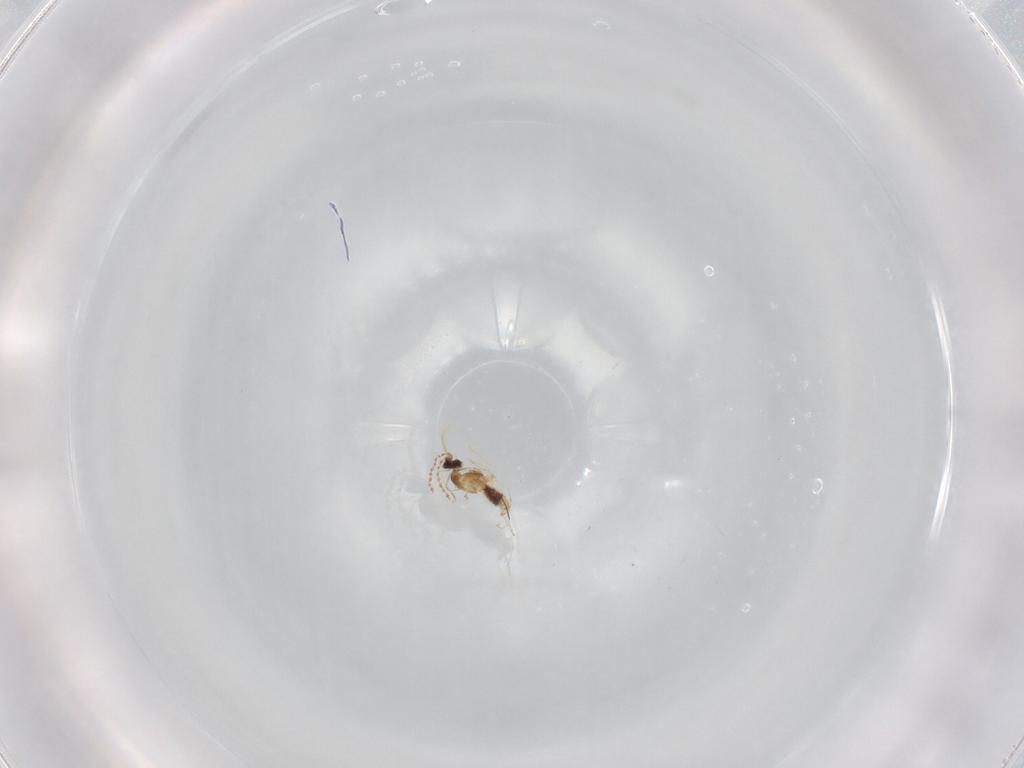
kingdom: Animalia
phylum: Arthropoda
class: Insecta
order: Diptera
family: Cecidomyiidae
